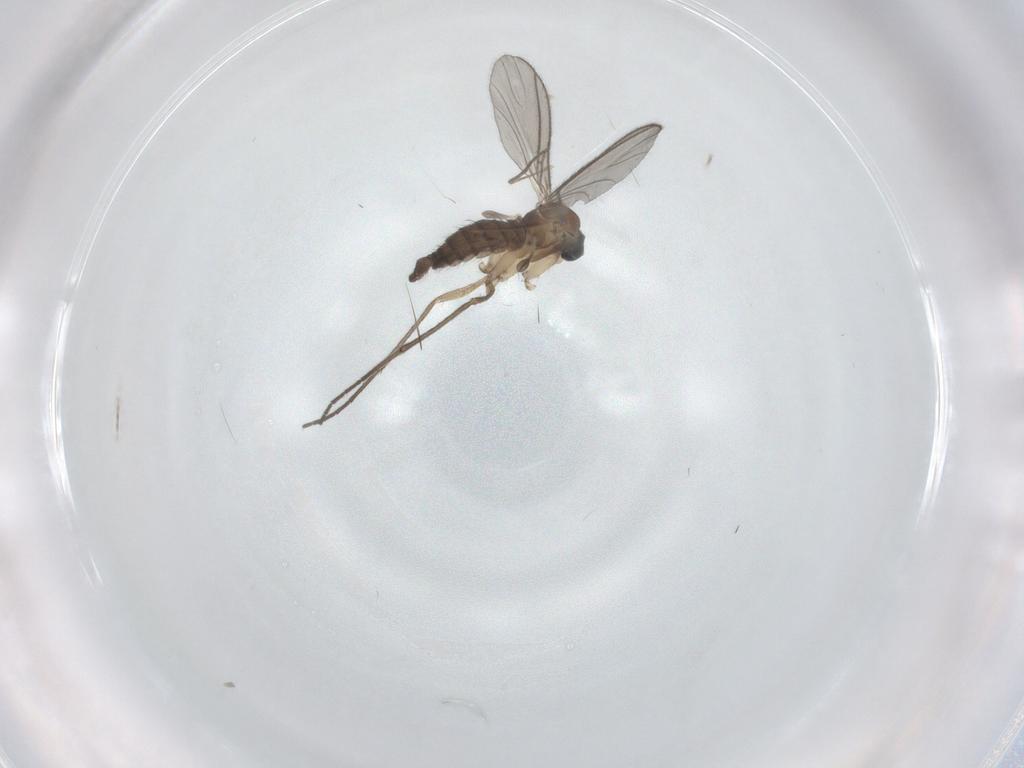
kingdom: Animalia
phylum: Arthropoda
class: Insecta
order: Diptera
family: Sciaridae
